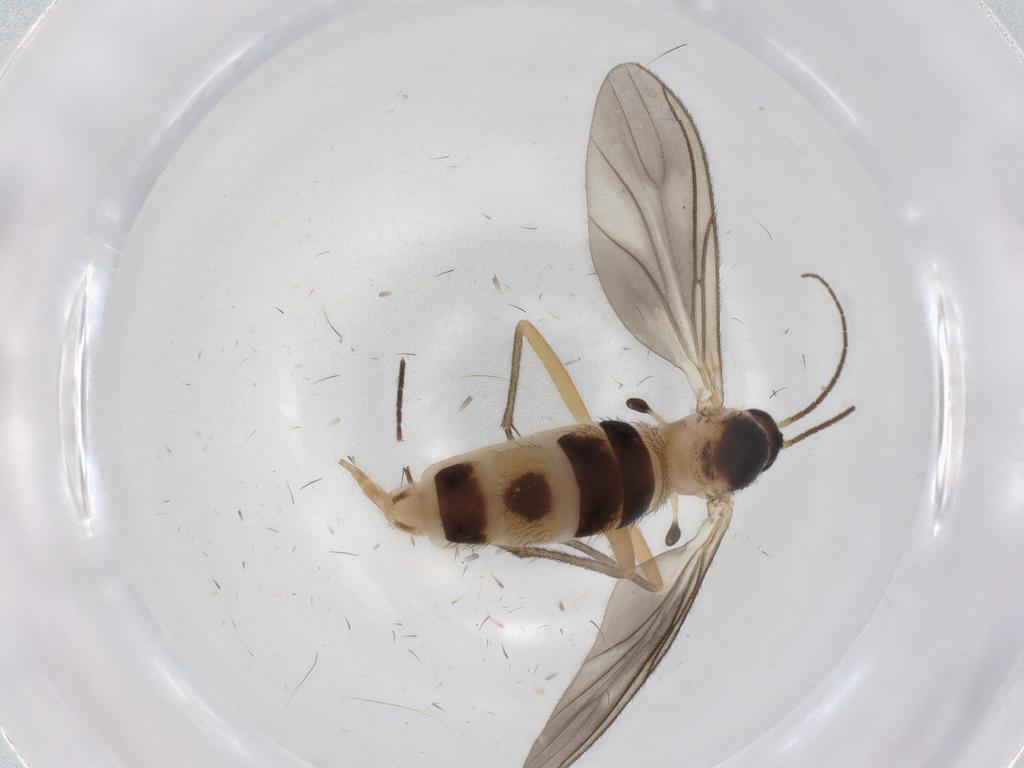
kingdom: Animalia
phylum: Arthropoda
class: Insecta
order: Diptera
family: Sciaridae
